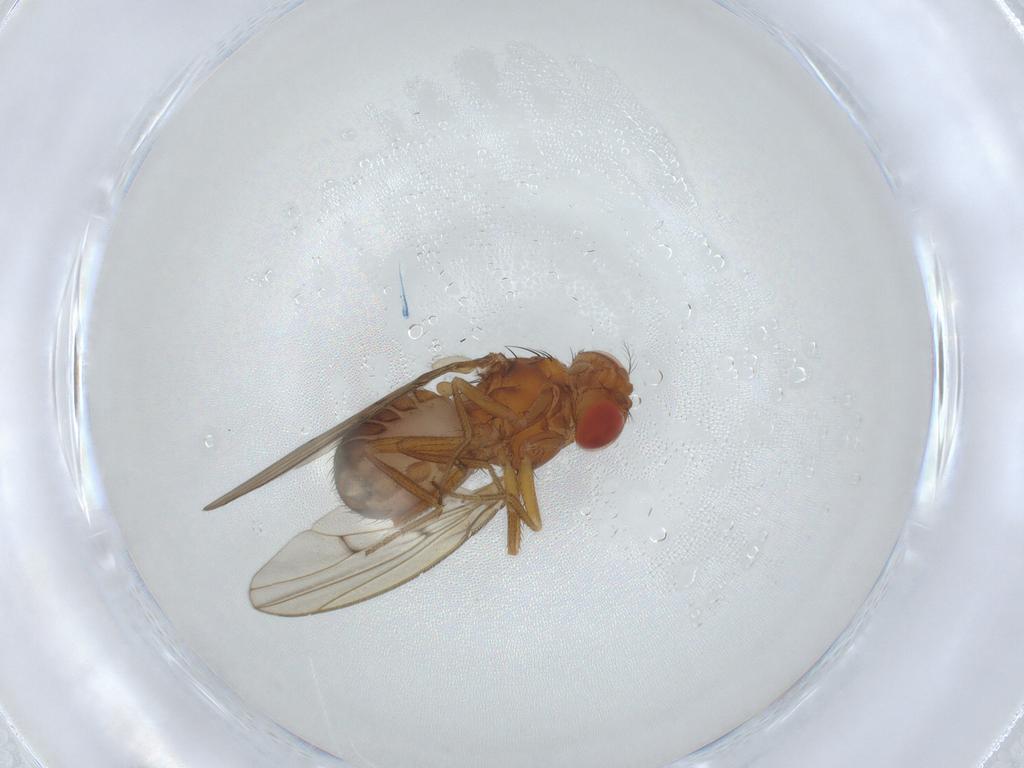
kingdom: Animalia
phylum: Arthropoda
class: Insecta
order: Diptera
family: Drosophilidae
